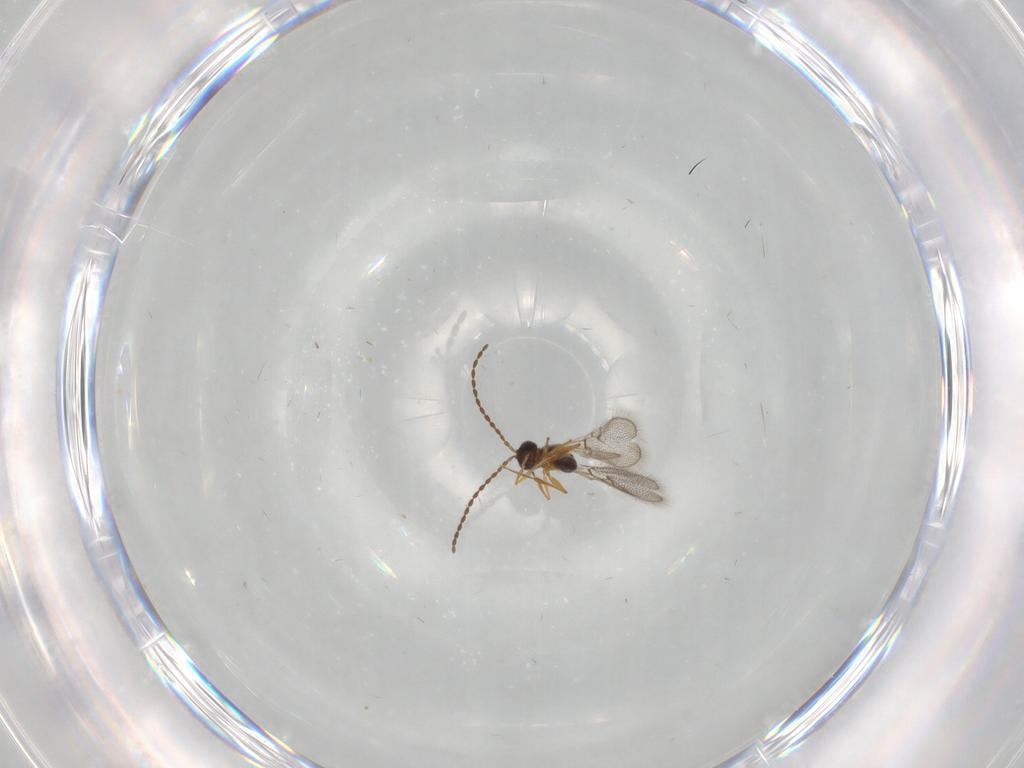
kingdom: Animalia
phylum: Arthropoda
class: Insecta
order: Hymenoptera
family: Figitidae
